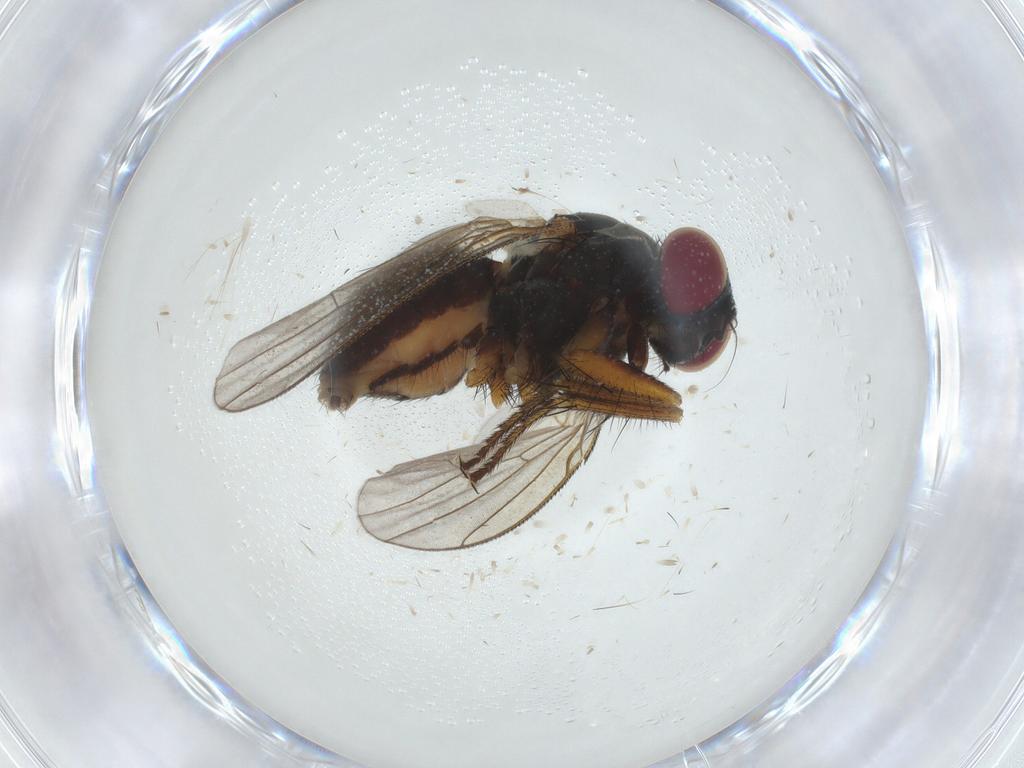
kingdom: Animalia
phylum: Arthropoda
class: Insecta
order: Diptera
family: Muscidae
